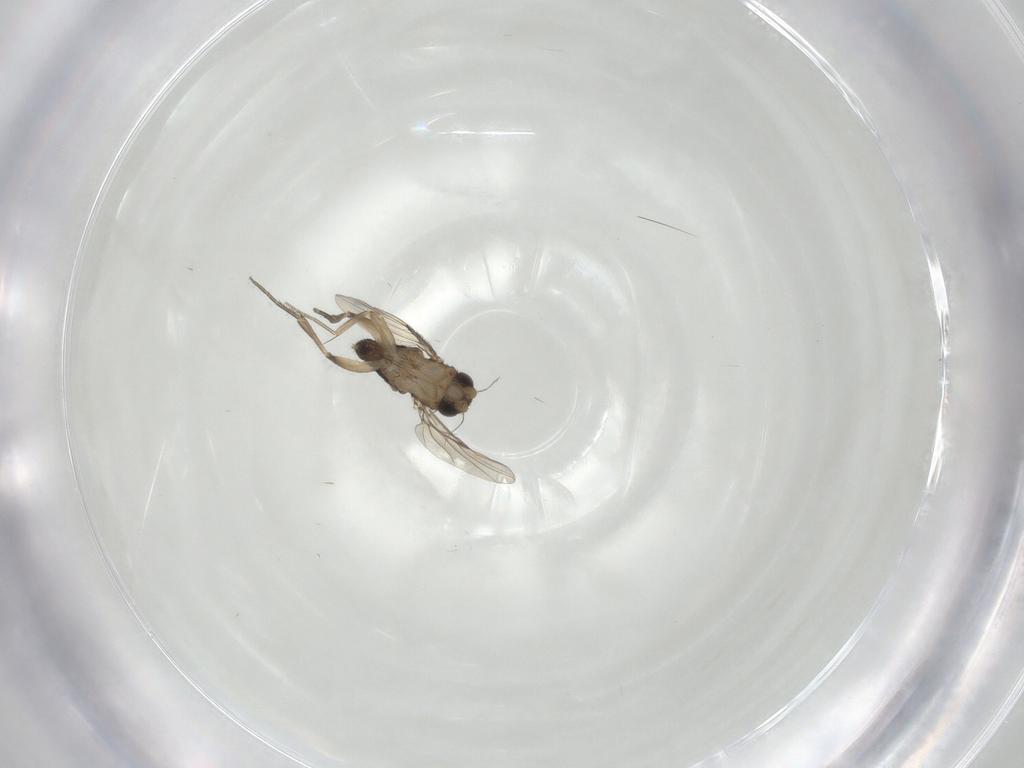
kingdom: Animalia
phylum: Arthropoda
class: Insecta
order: Diptera
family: Phoridae
